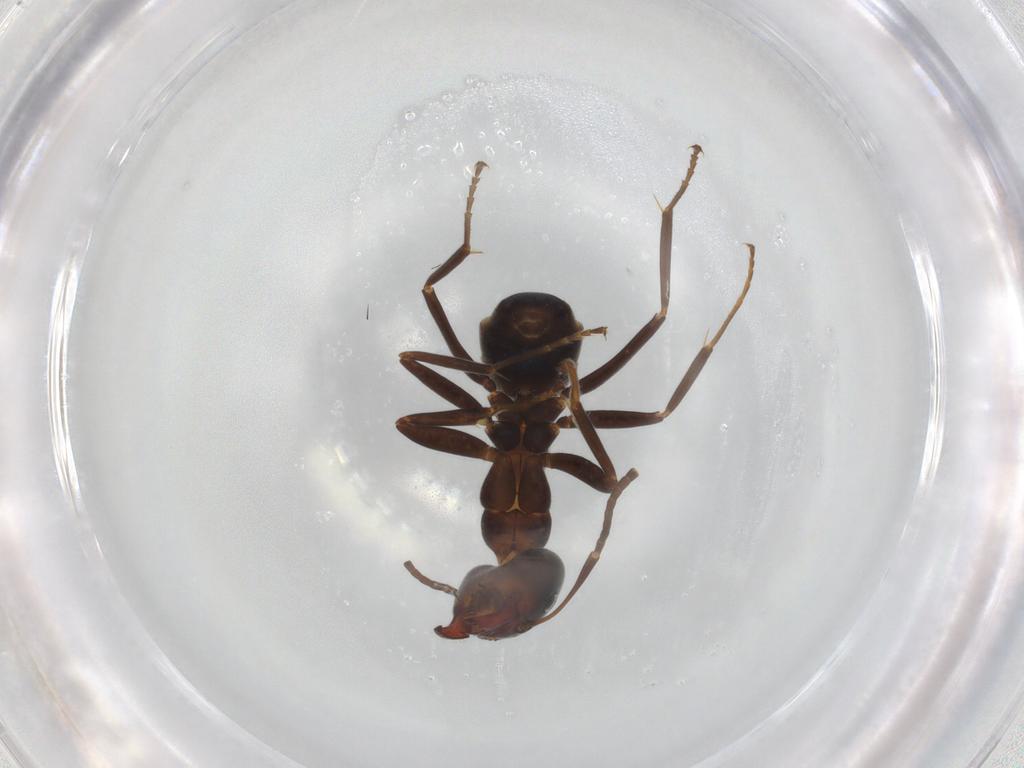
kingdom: Animalia
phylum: Arthropoda
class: Insecta
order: Hymenoptera
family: Formicidae
